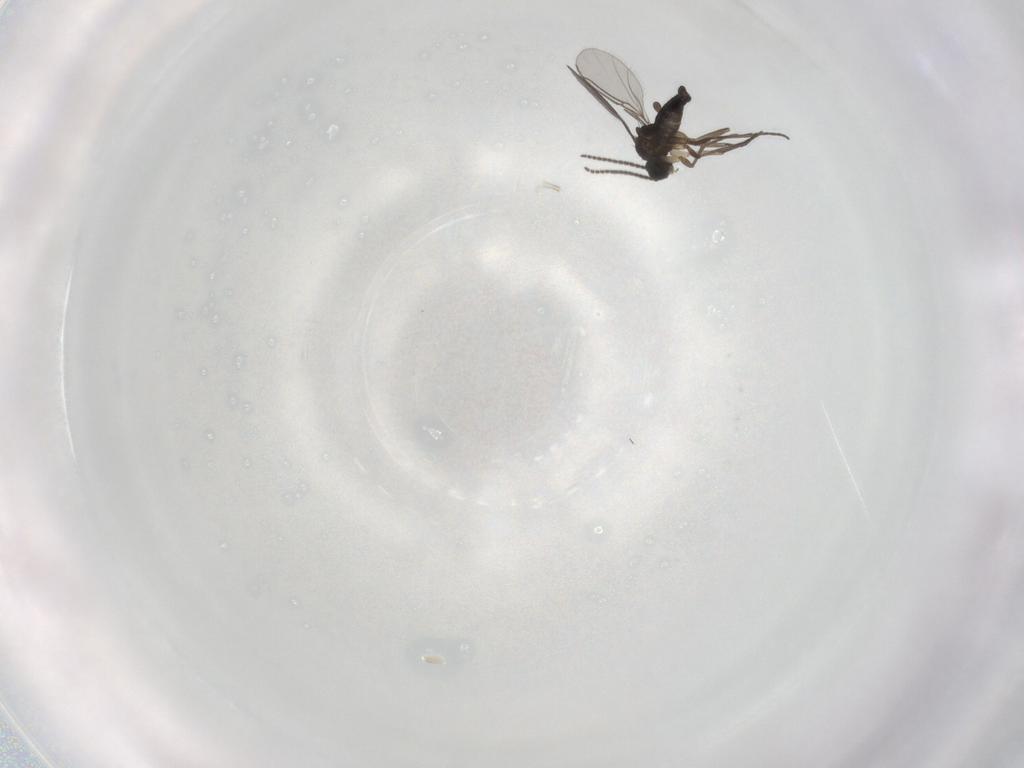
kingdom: Animalia
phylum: Arthropoda
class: Insecta
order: Diptera
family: Sciaridae
